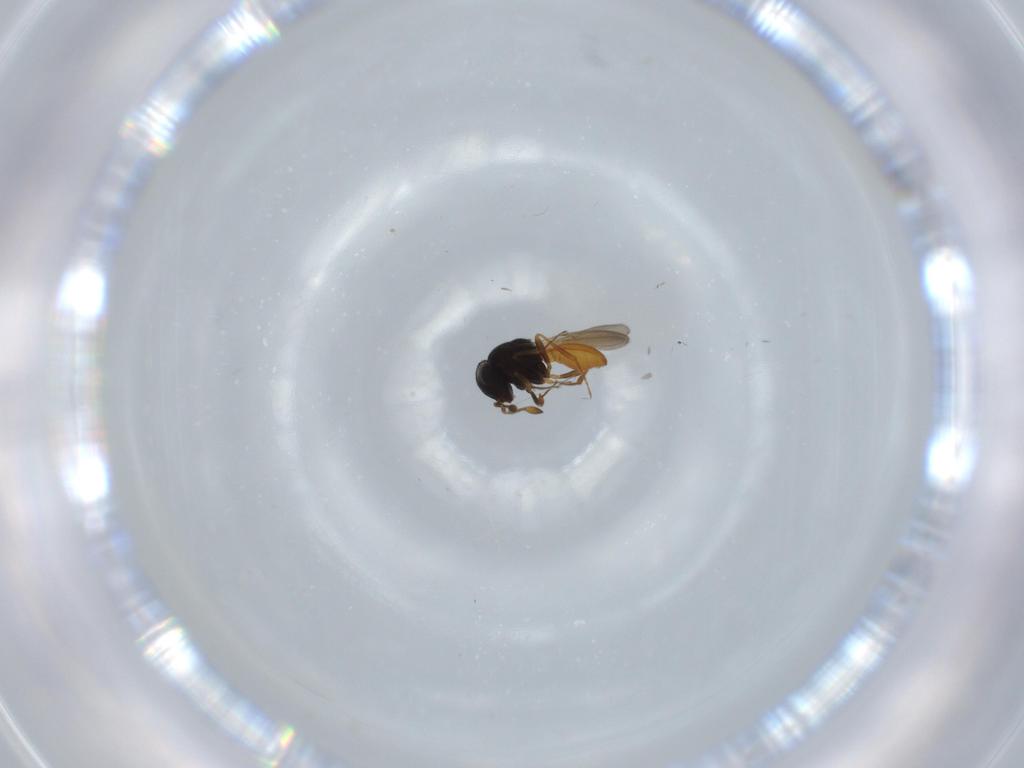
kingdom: Animalia
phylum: Arthropoda
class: Insecta
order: Hymenoptera
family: Scelionidae
